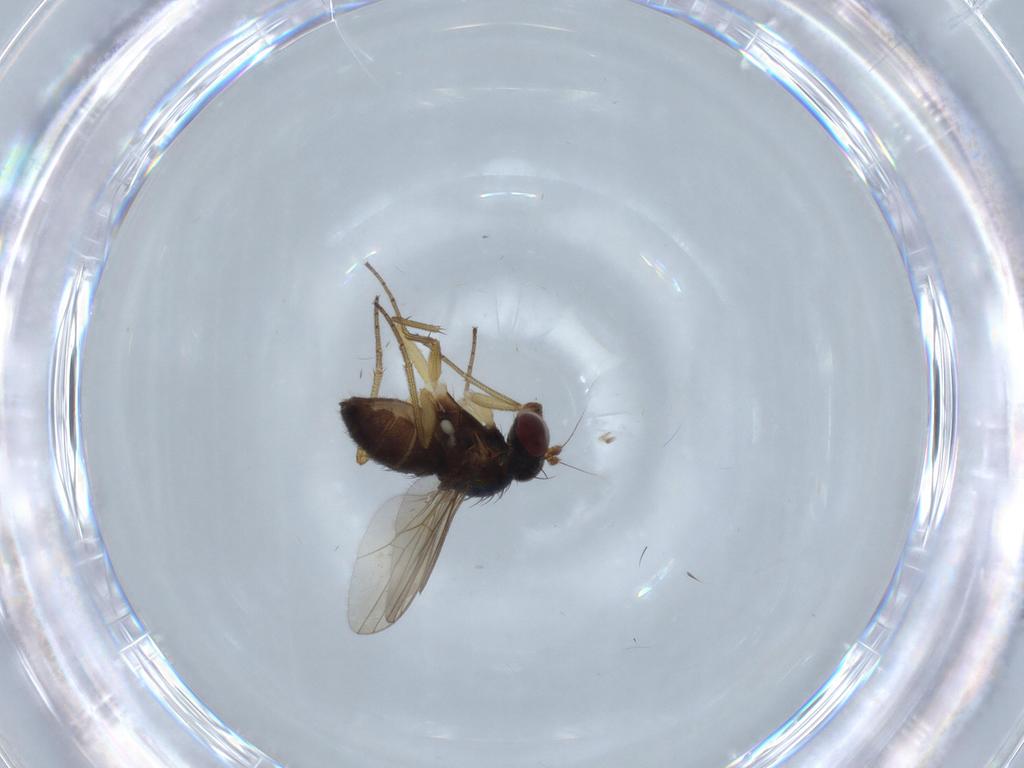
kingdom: Animalia
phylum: Arthropoda
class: Insecta
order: Diptera
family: Dolichopodidae
